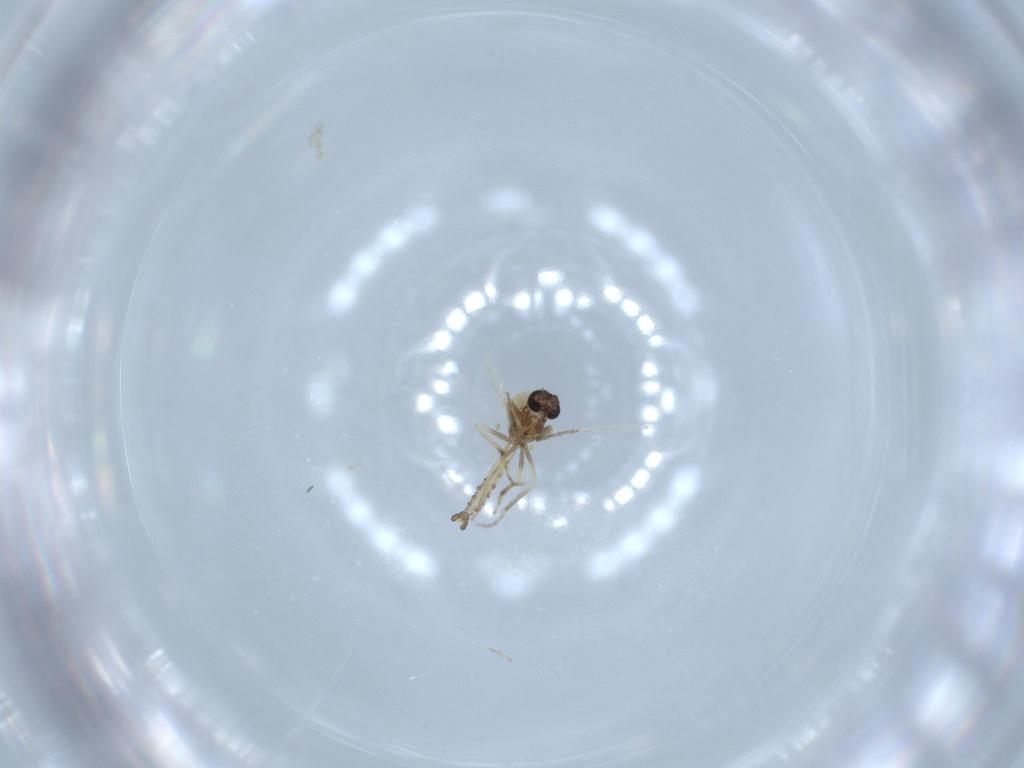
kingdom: Animalia
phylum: Arthropoda
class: Insecta
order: Diptera
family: Ceratopogonidae
